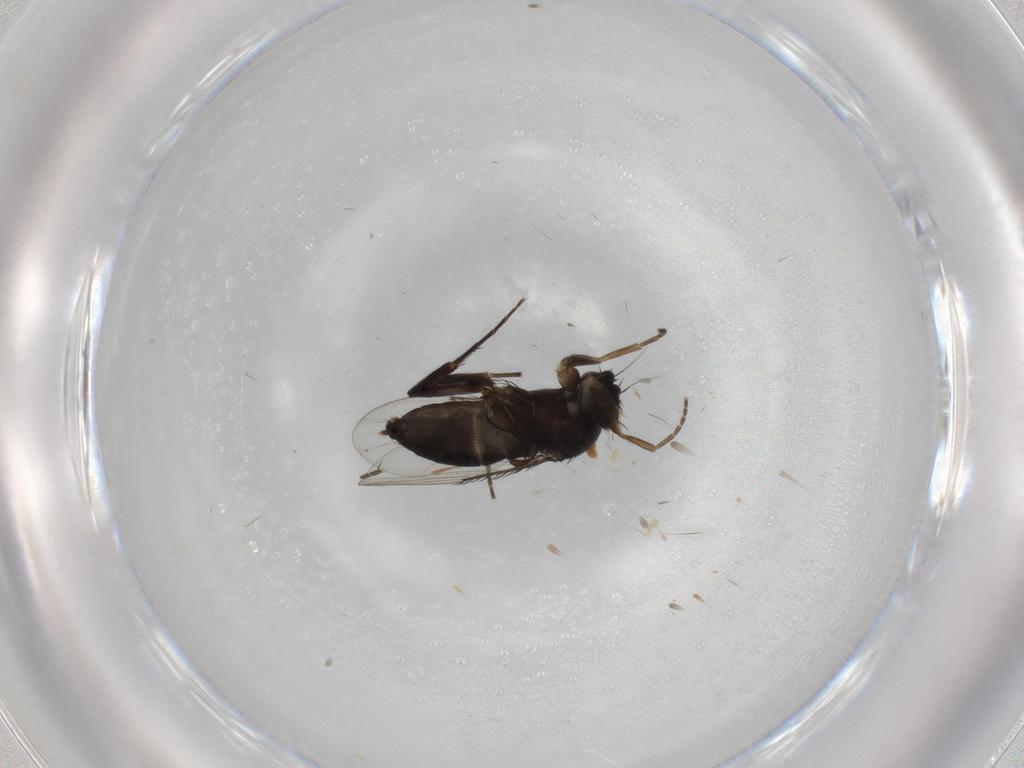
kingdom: Animalia
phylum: Arthropoda
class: Insecta
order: Diptera
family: Phoridae
